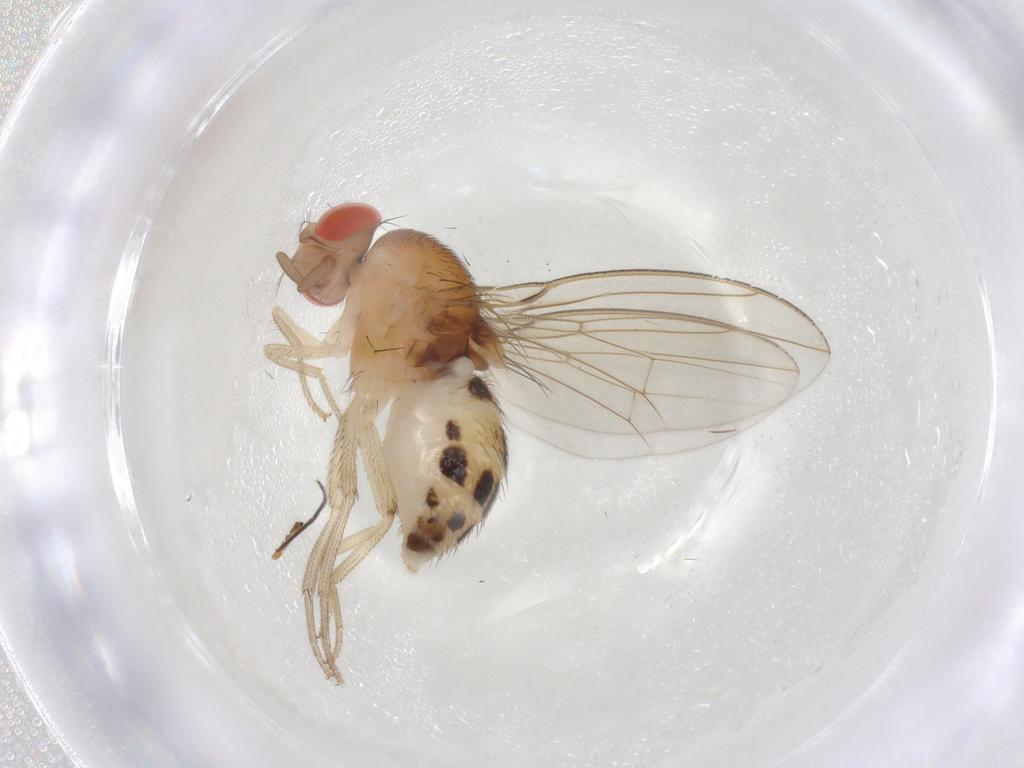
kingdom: Animalia
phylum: Arthropoda
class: Insecta
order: Diptera
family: Drosophilidae
